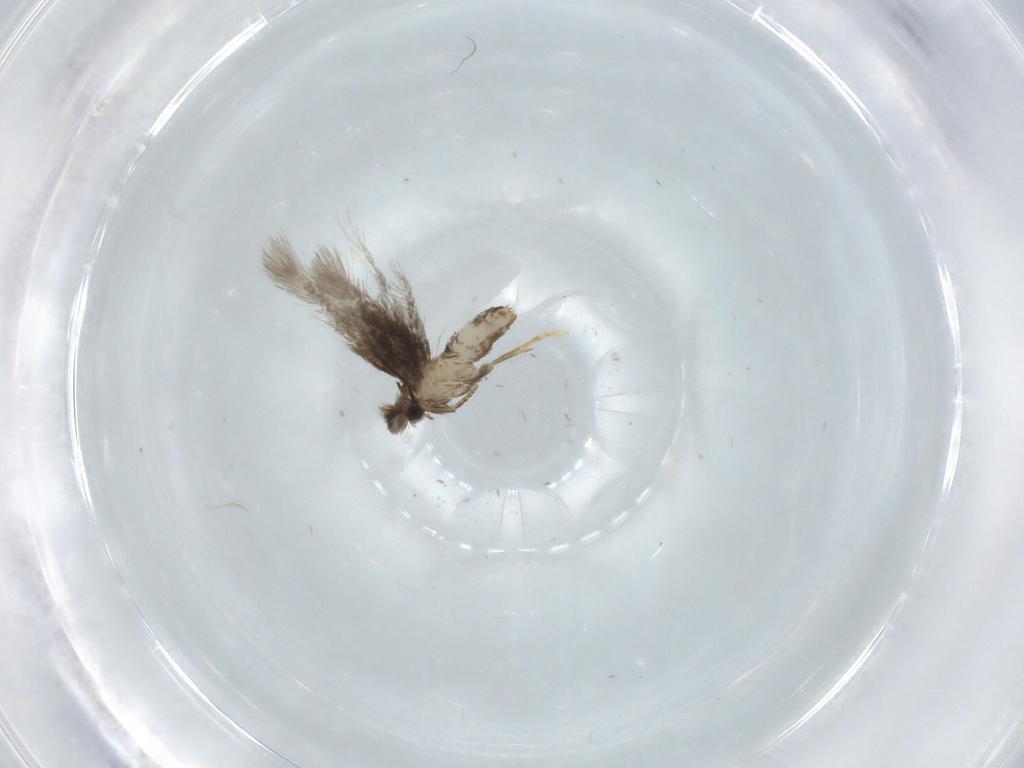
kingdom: Animalia
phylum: Arthropoda
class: Insecta
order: Lepidoptera
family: Nepticulidae
